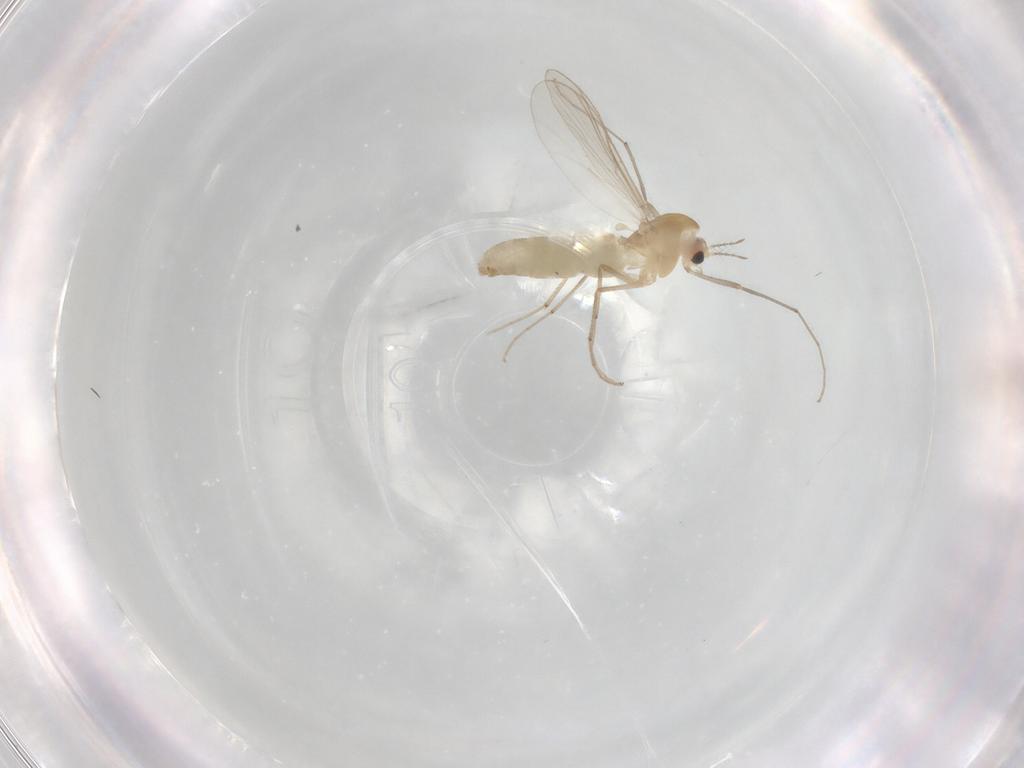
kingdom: Animalia
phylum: Arthropoda
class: Insecta
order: Diptera
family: Chironomidae
